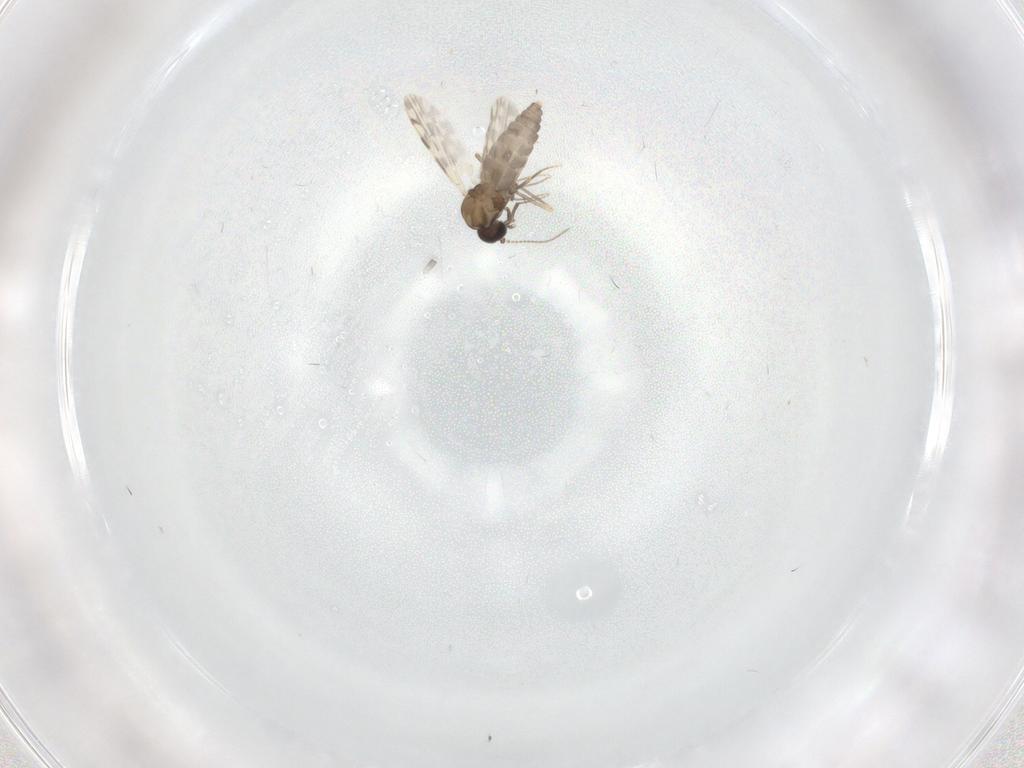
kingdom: Animalia
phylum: Arthropoda
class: Insecta
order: Diptera
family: Ceratopogonidae
